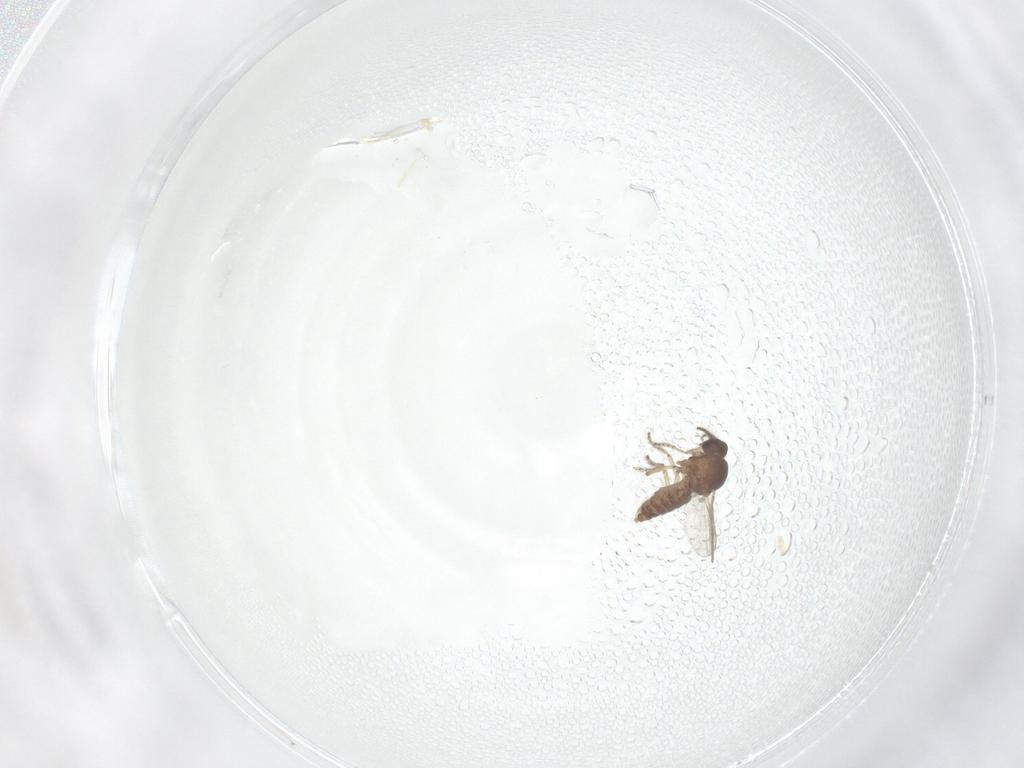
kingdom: Animalia
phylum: Arthropoda
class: Insecta
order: Diptera
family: Ceratopogonidae
